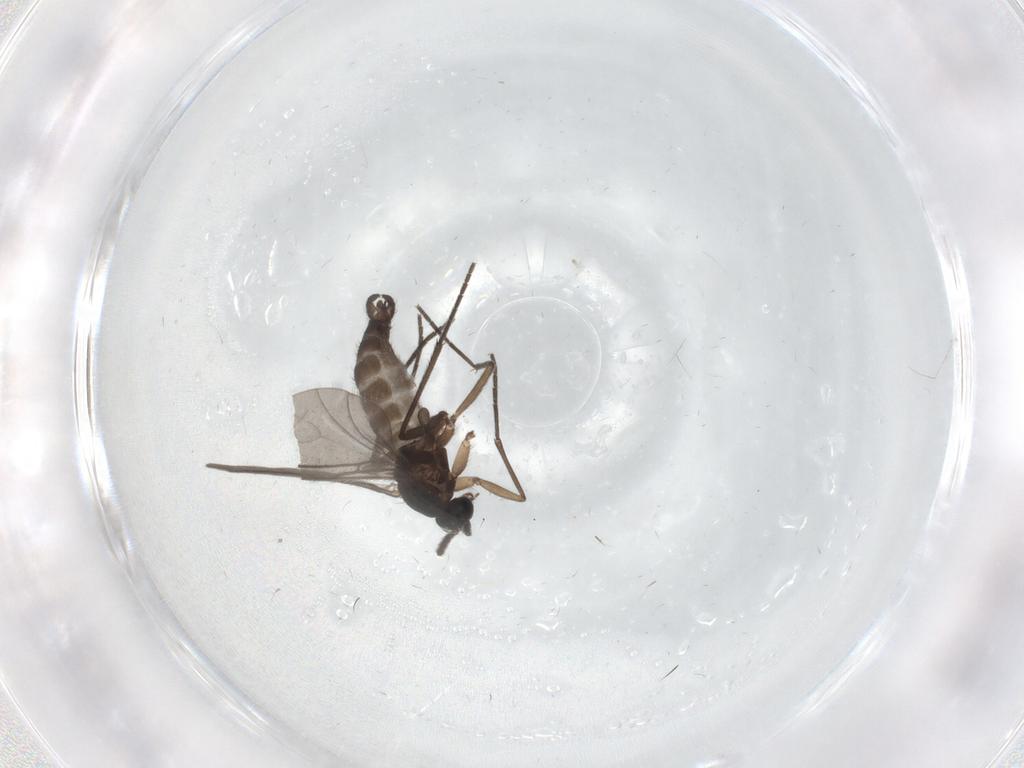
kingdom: Animalia
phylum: Arthropoda
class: Insecta
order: Diptera
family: Sciaridae
